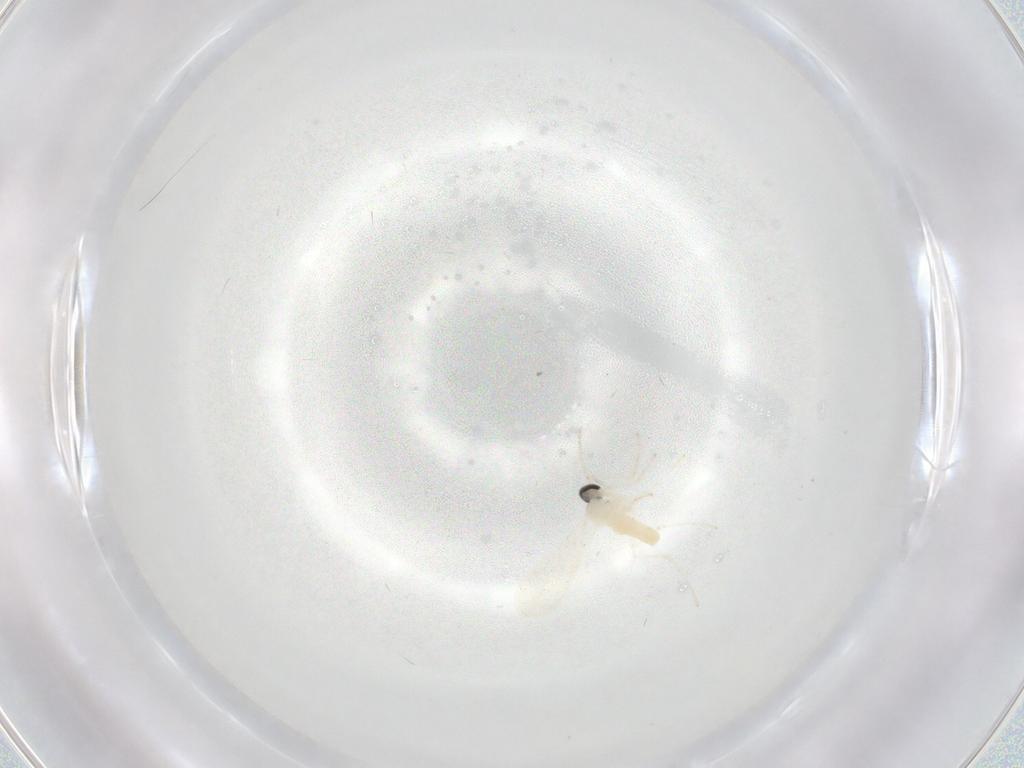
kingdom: Animalia
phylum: Arthropoda
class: Insecta
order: Diptera
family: Cecidomyiidae
